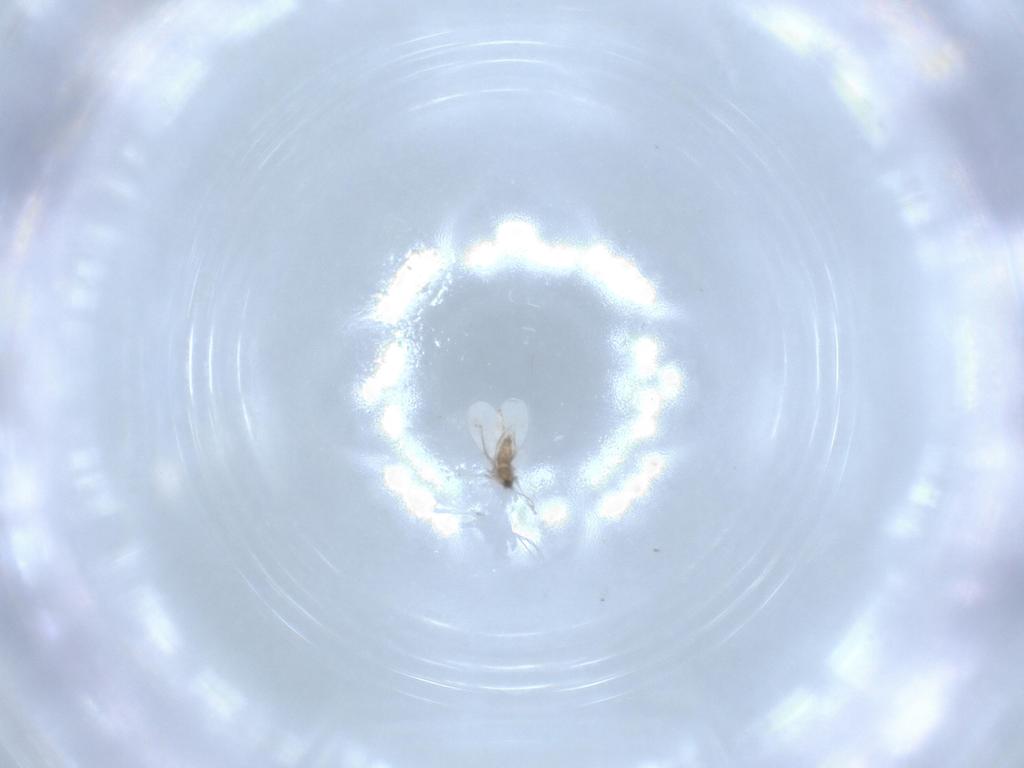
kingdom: Animalia
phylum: Arthropoda
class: Insecta
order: Diptera
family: Cecidomyiidae
